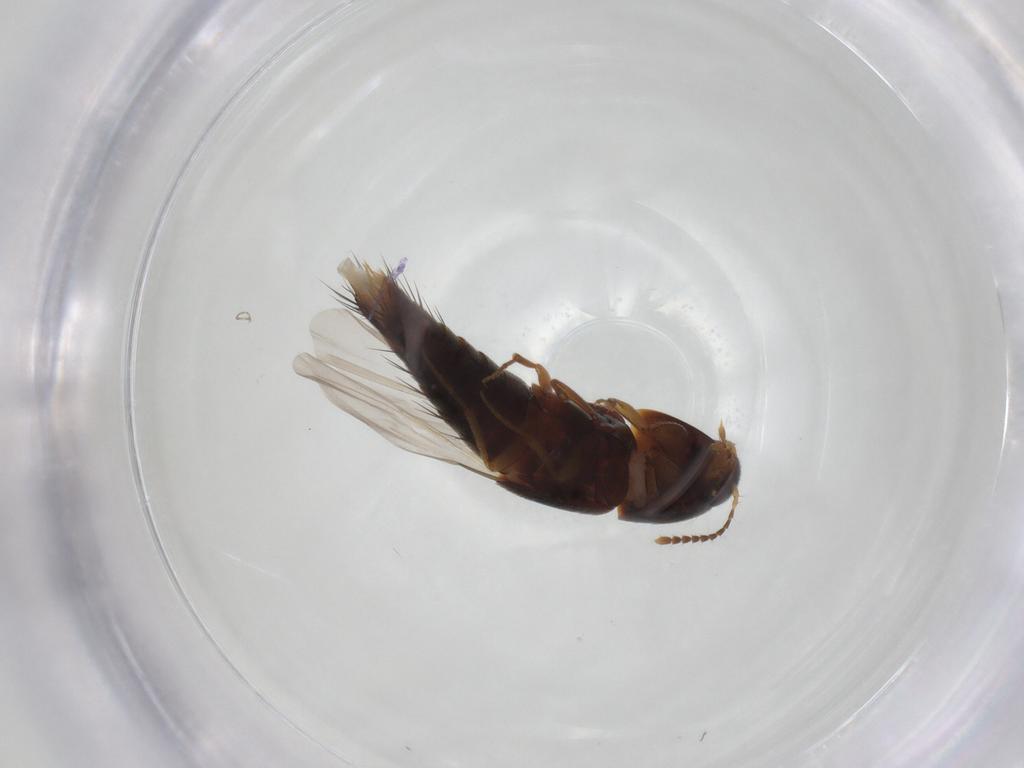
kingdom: Animalia
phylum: Arthropoda
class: Insecta
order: Coleoptera
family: Staphylinidae
